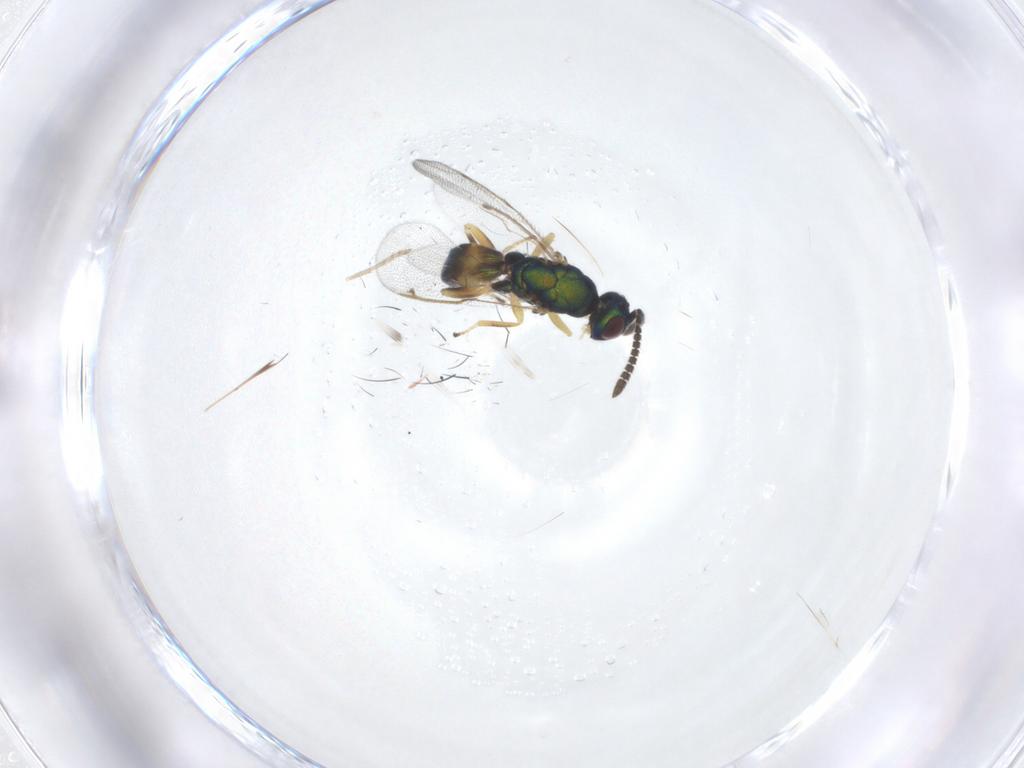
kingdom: Animalia
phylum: Arthropoda
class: Insecta
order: Hymenoptera
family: Torymidae
